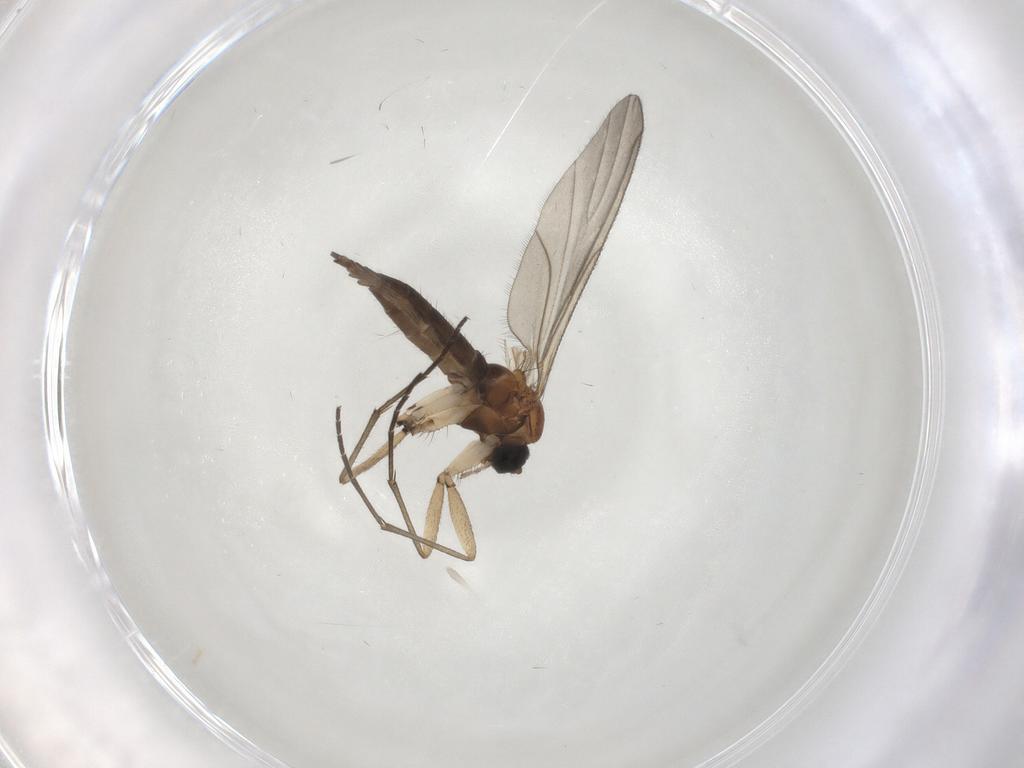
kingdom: Animalia
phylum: Arthropoda
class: Insecta
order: Diptera
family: Sciaridae
